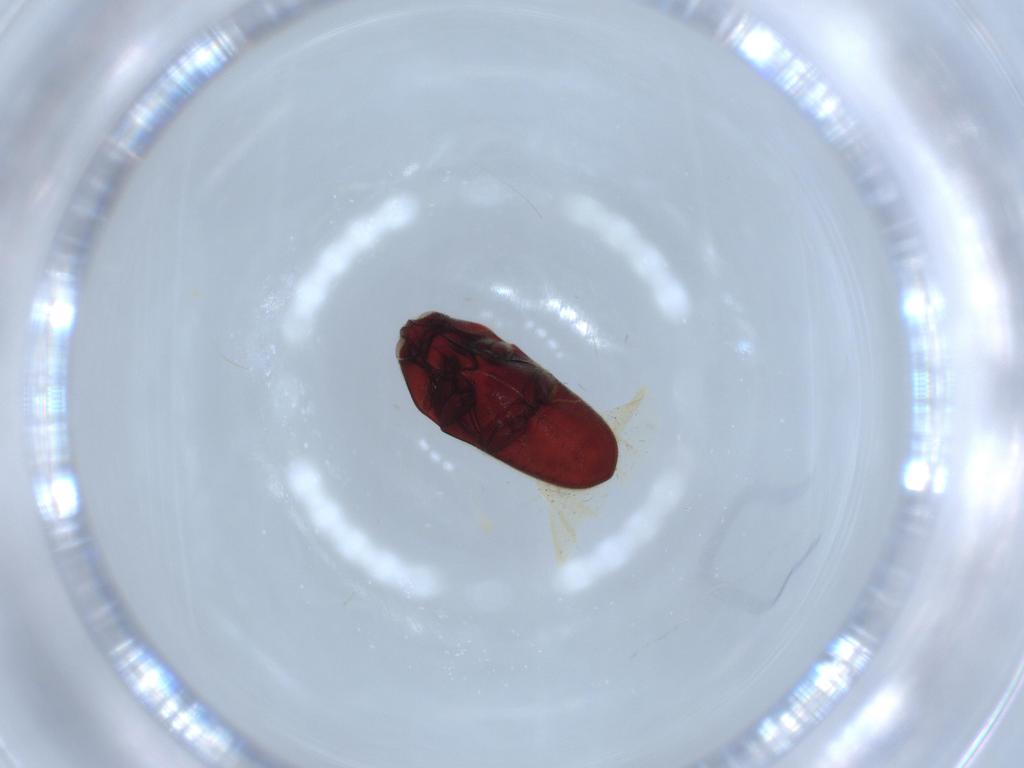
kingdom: Animalia
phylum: Arthropoda
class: Insecta
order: Coleoptera
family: Throscidae
